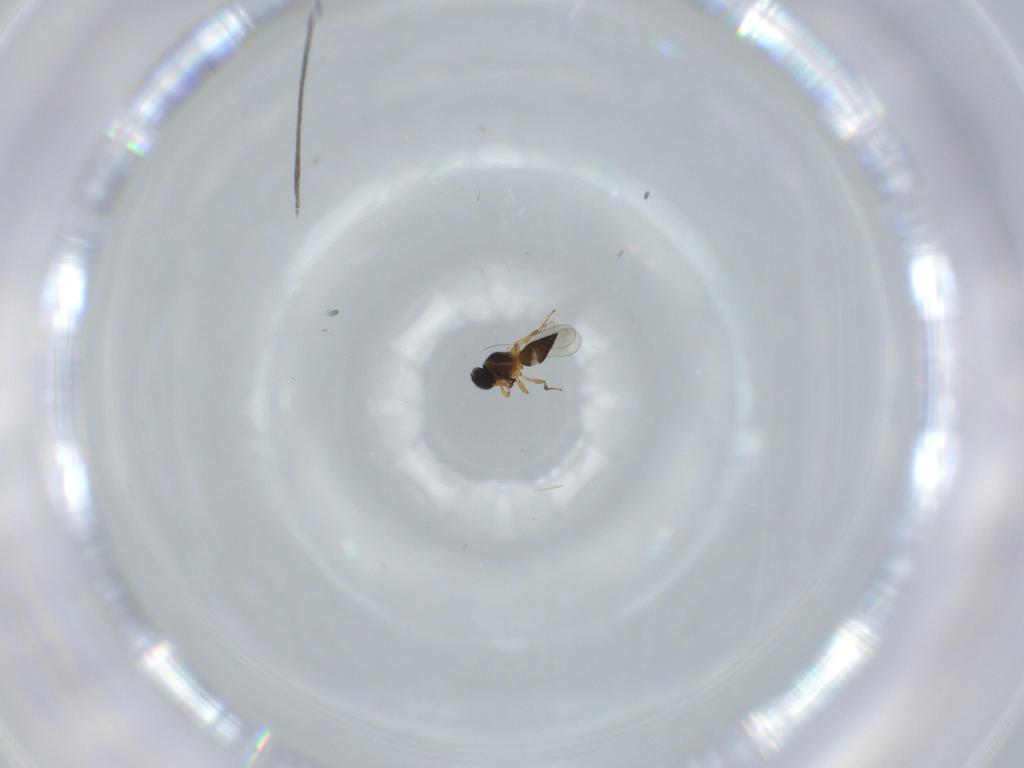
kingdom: Animalia
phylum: Arthropoda
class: Insecta
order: Hymenoptera
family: Platygastridae
